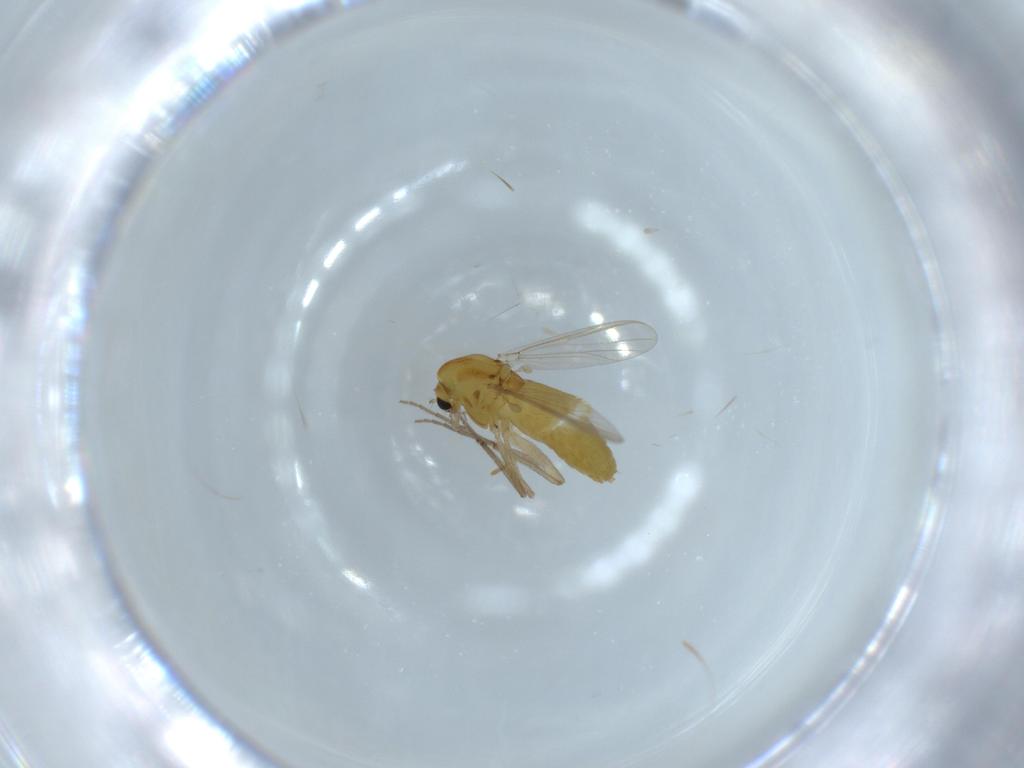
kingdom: Animalia
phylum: Arthropoda
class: Insecta
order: Diptera
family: Chironomidae
